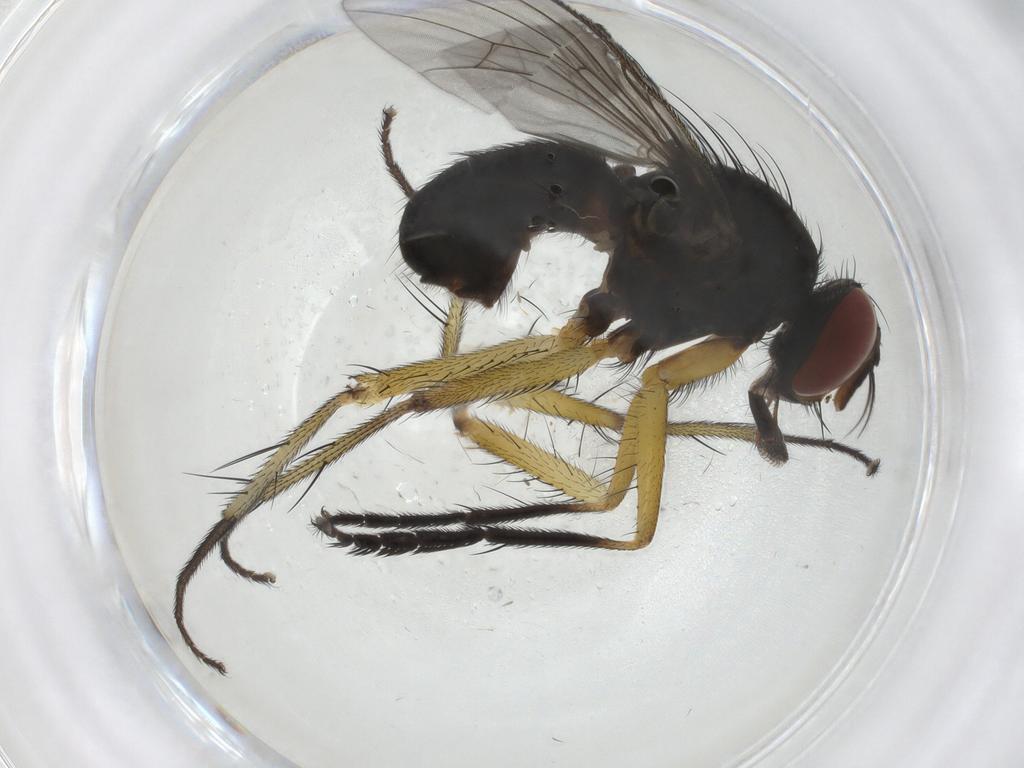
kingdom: Animalia
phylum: Arthropoda
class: Insecta
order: Diptera
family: Muscidae
